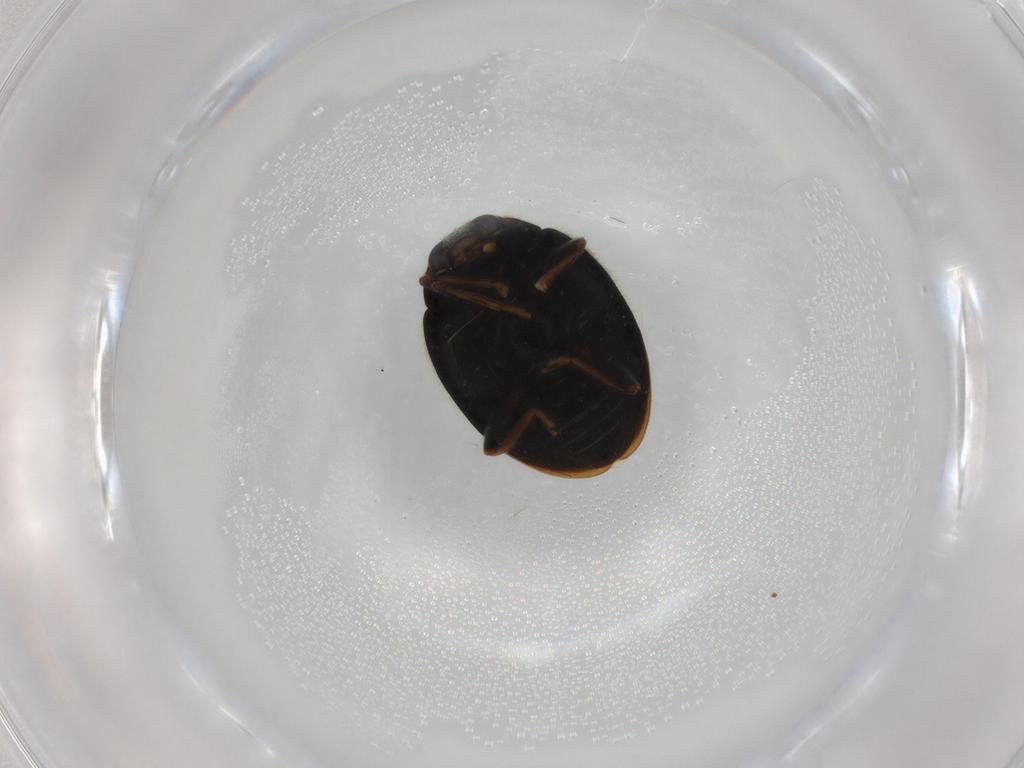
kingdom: Animalia
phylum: Arthropoda
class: Insecta
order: Coleoptera
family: Coccinellidae
